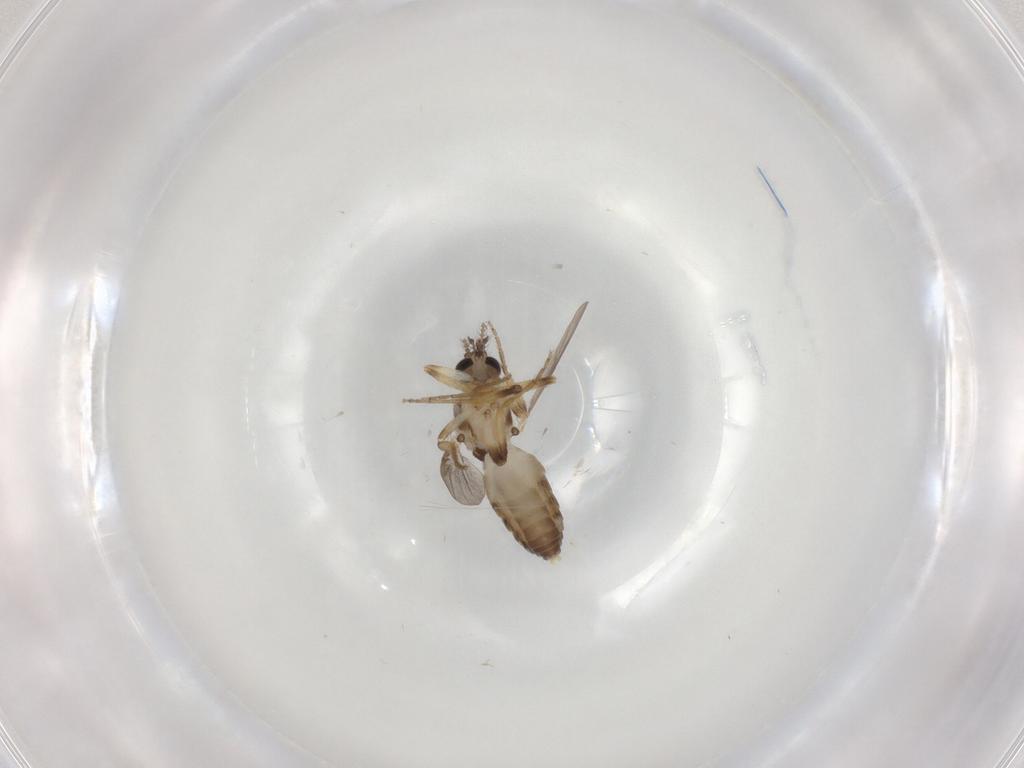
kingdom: Animalia
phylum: Arthropoda
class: Insecta
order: Diptera
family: Ceratopogonidae
